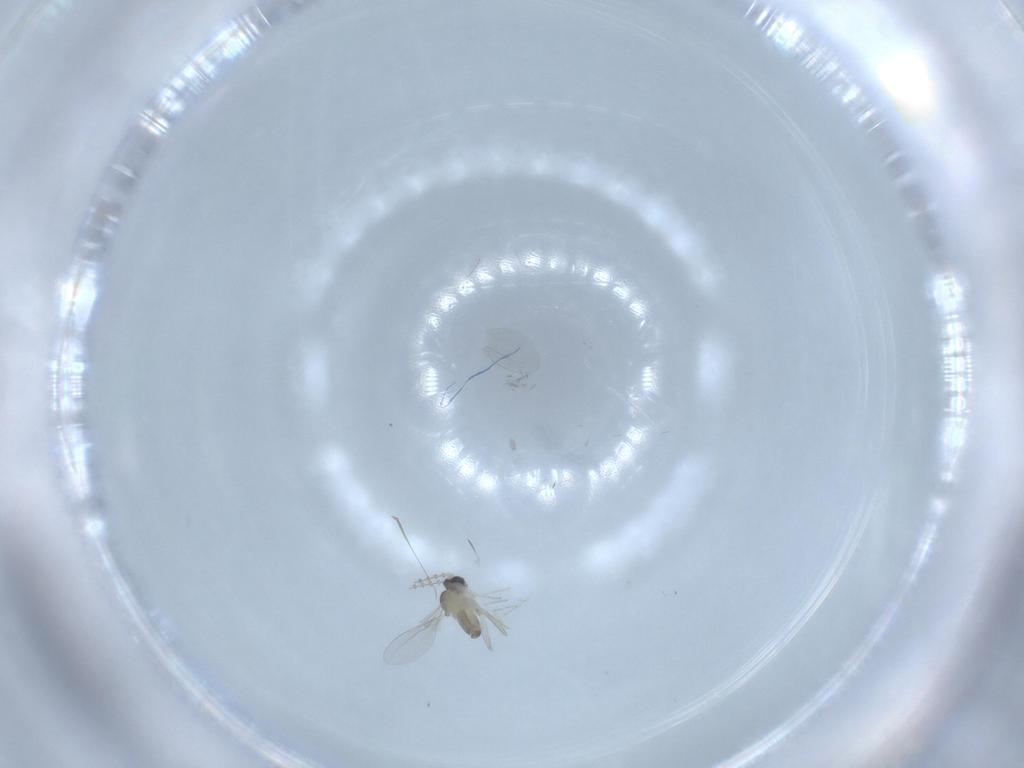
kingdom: Animalia
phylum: Arthropoda
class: Insecta
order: Diptera
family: Cecidomyiidae
